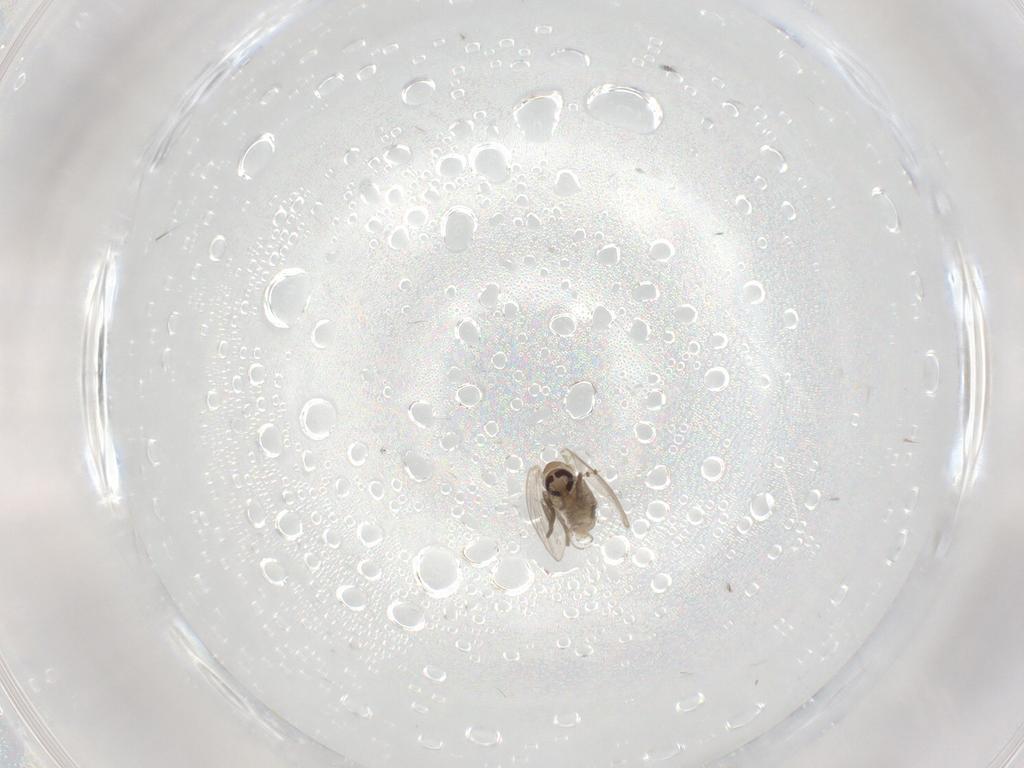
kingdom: Animalia
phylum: Arthropoda
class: Insecta
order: Diptera
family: Psychodidae
